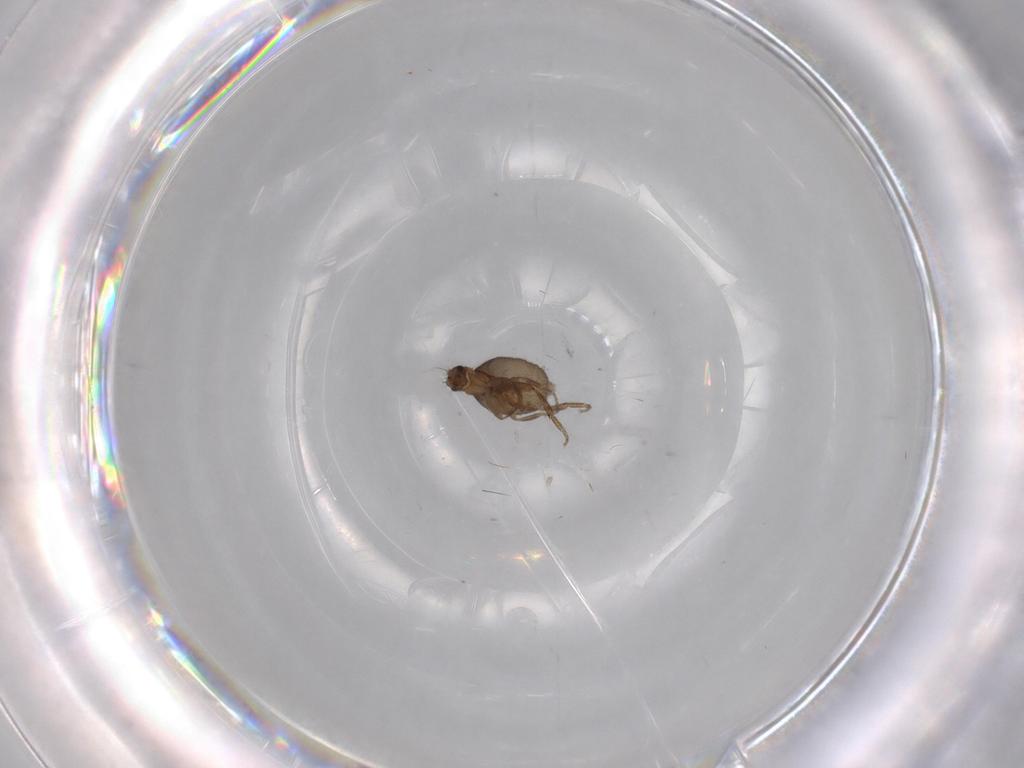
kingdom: Animalia
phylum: Arthropoda
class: Insecta
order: Diptera
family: Phoridae
